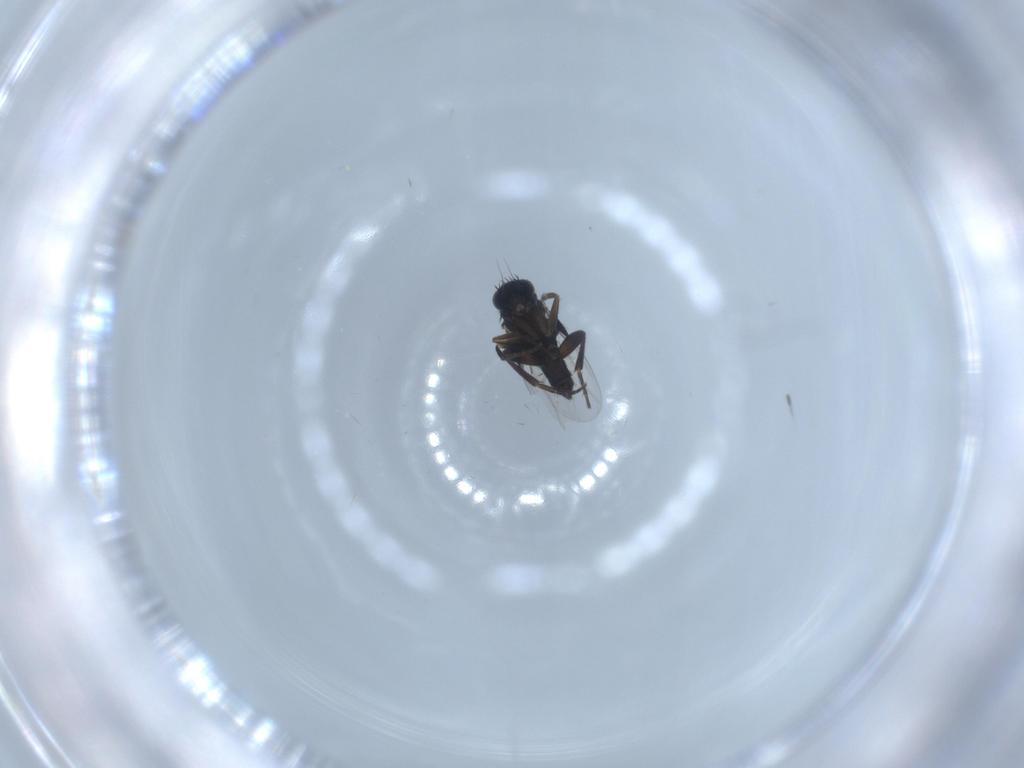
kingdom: Animalia
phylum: Arthropoda
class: Insecta
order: Diptera
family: Phoridae
